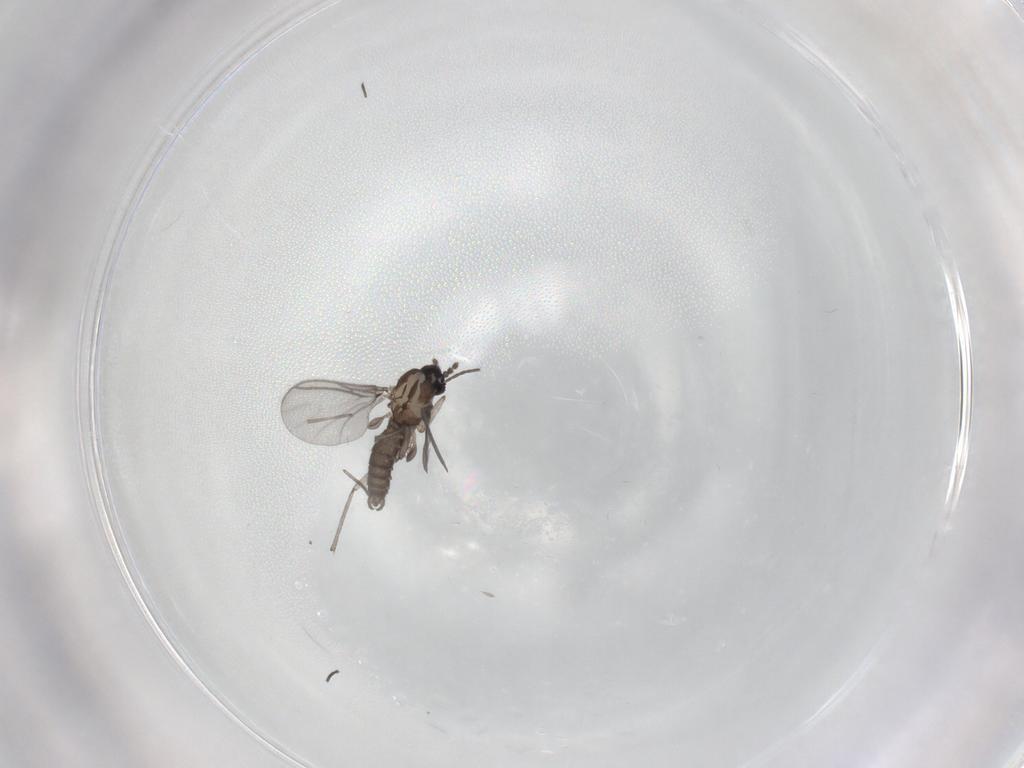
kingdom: Animalia
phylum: Arthropoda
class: Insecta
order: Diptera
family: Sciaridae
